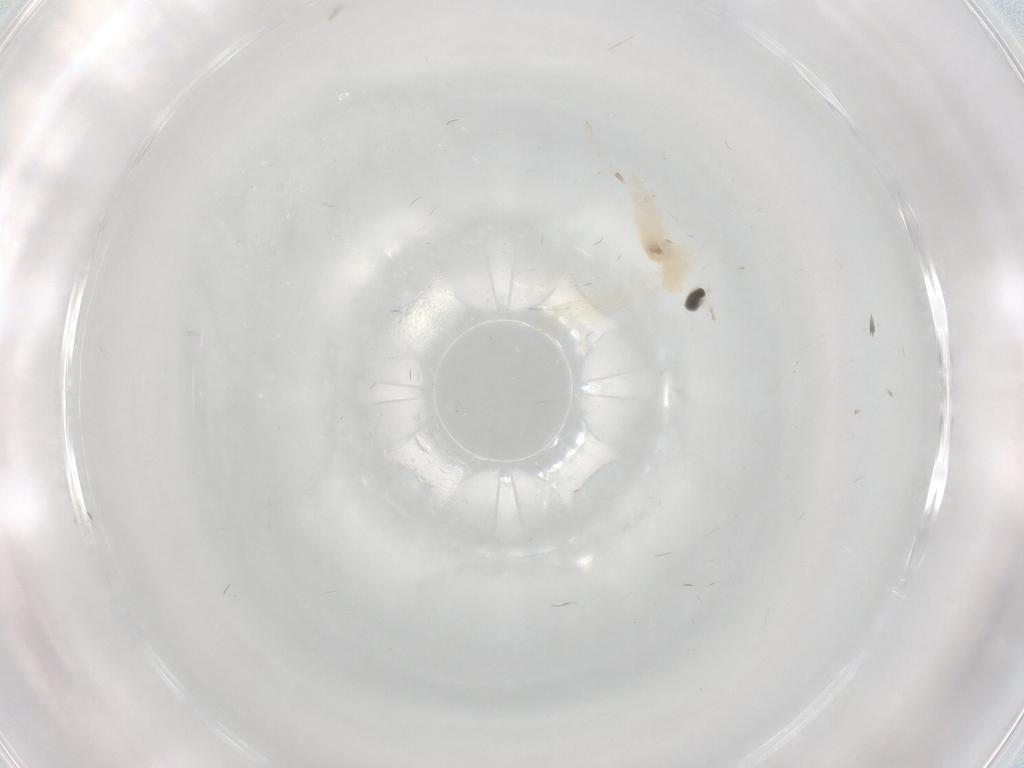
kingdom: Animalia
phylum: Arthropoda
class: Insecta
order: Diptera
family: Cecidomyiidae
